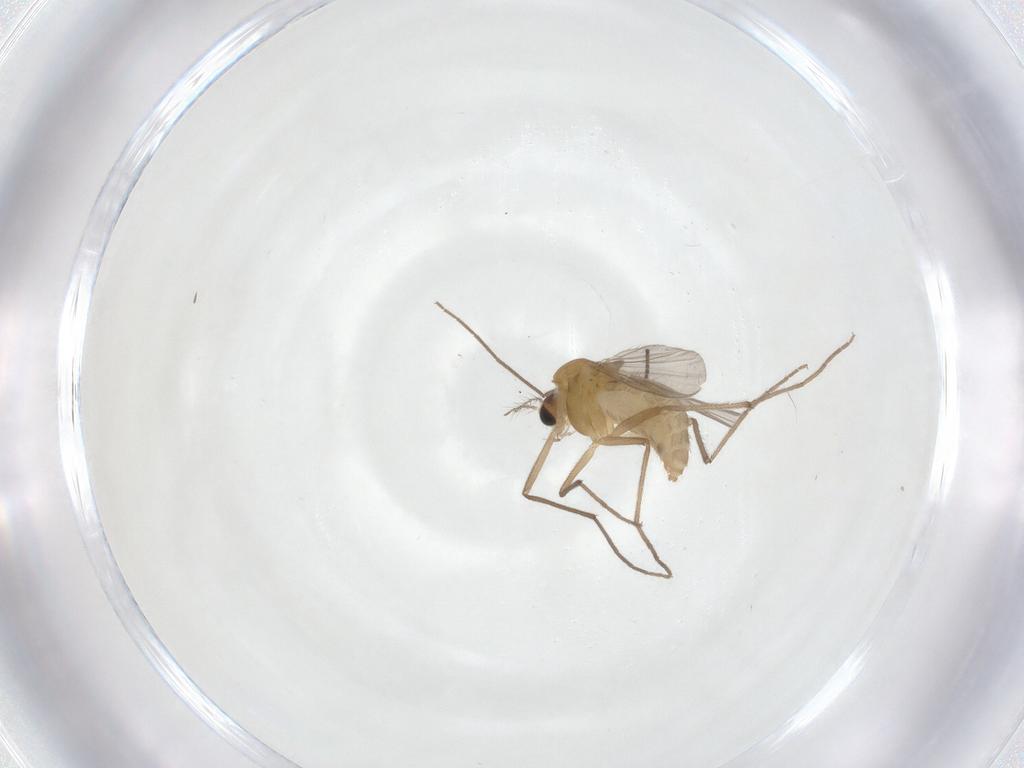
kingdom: Animalia
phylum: Arthropoda
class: Insecta
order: Diptera
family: Chironomidae
